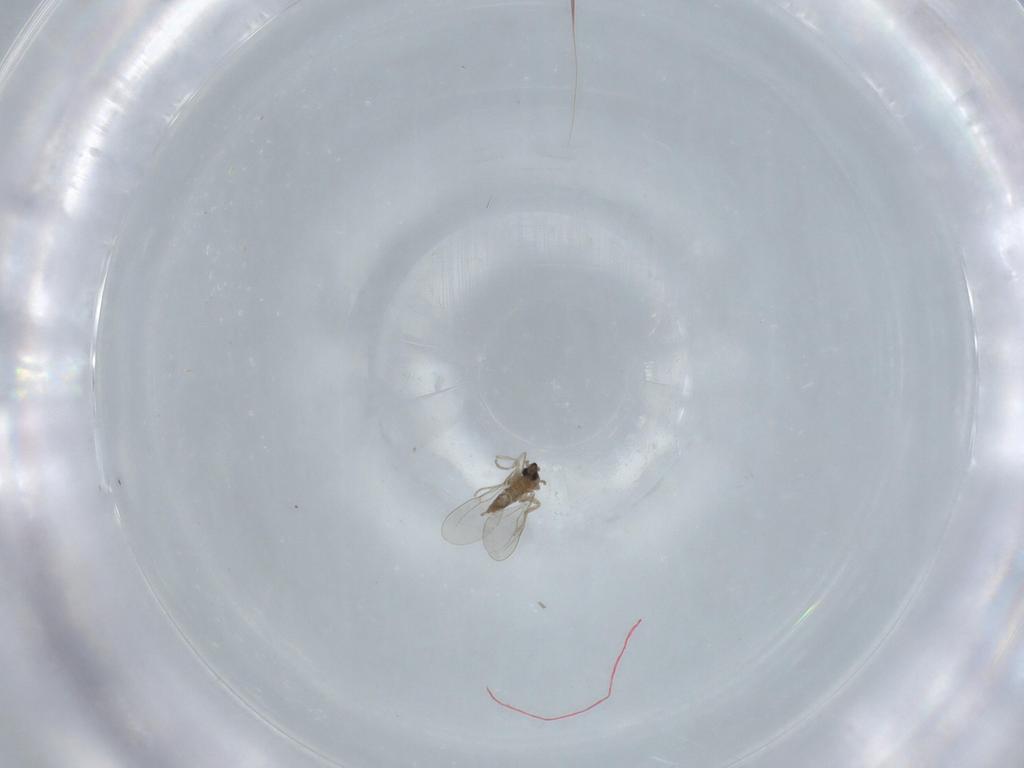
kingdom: Animalia
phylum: Arthropoda
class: Insecta
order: Diptera
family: Cecidomyiidae
